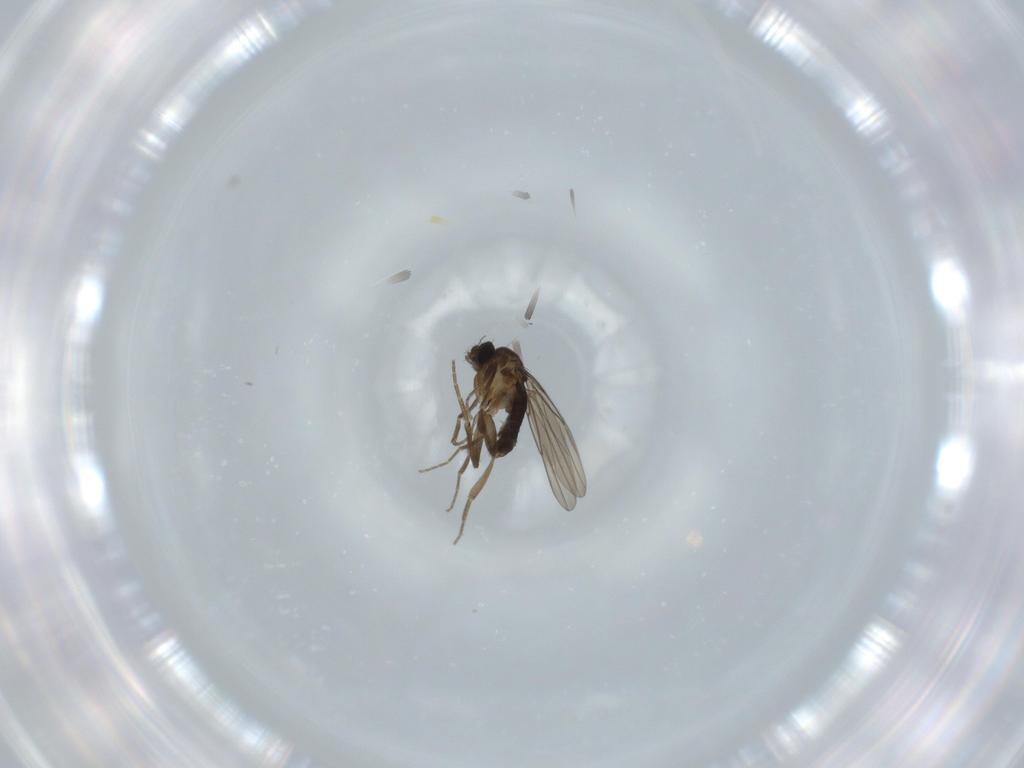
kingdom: Animalia
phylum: Arthropoda
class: Insecta
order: Diptera
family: Phoridae
